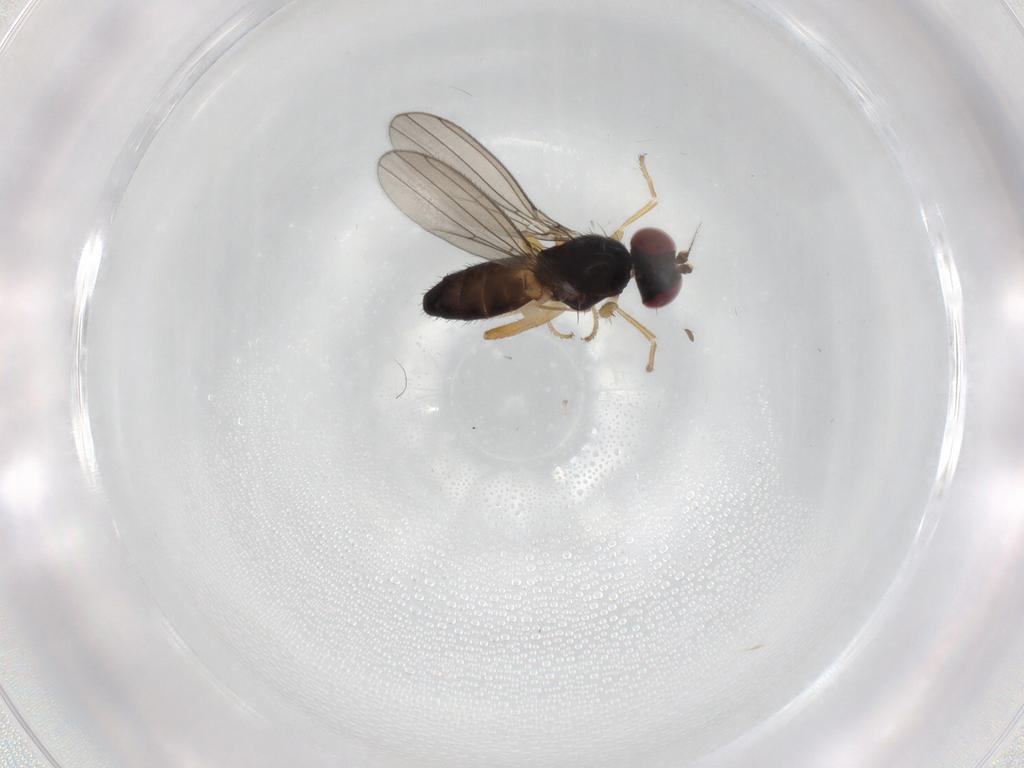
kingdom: Animalia
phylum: Arthropoda
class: Insecta
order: Diptera
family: Anthomyzidae
